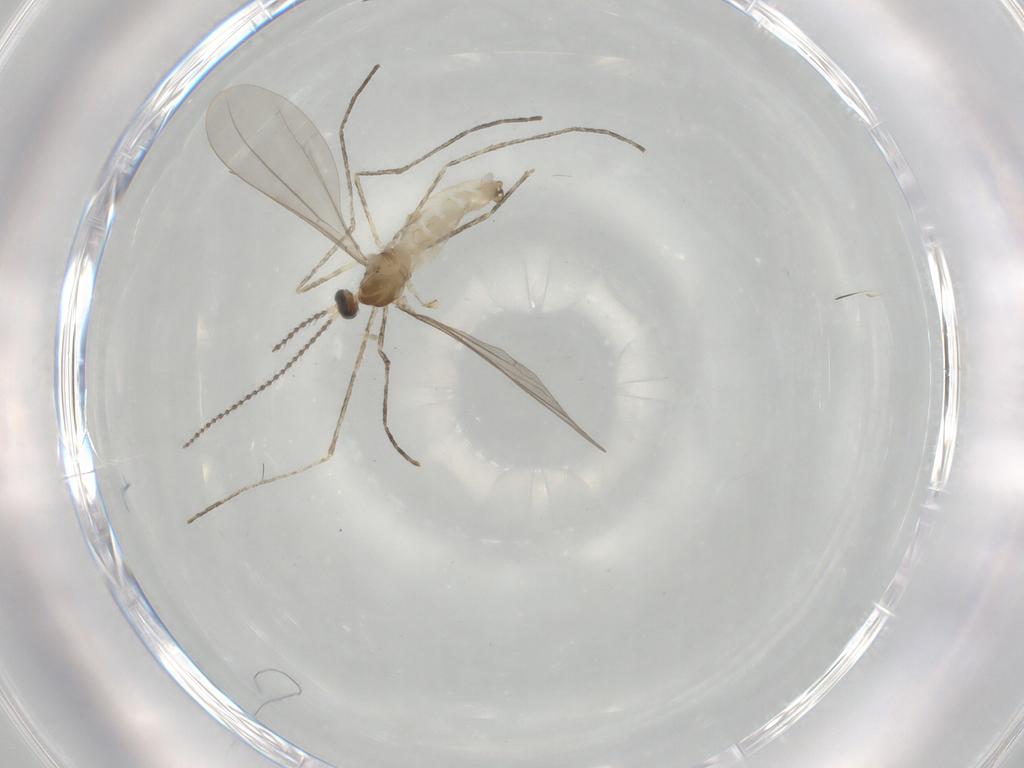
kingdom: Animalia
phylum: Arthropoda
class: Insecta
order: Diptera
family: Cecidomyiidae
